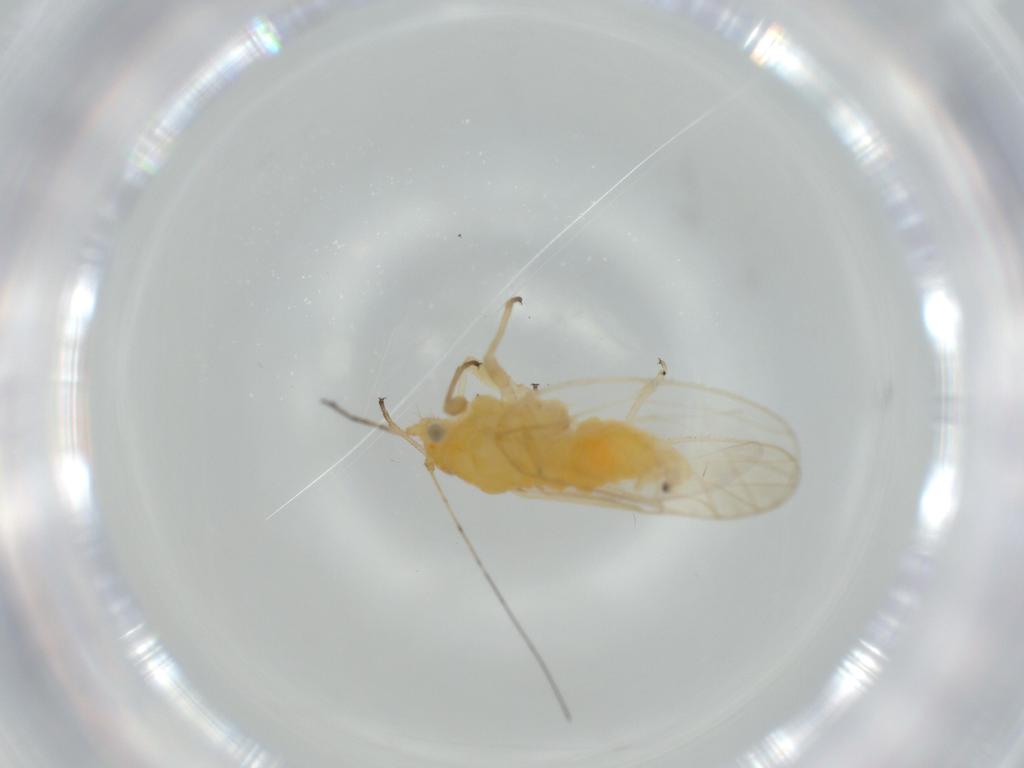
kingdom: Animalia
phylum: Arthropoda
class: Insecta
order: Hemiptera
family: Psyllidae
